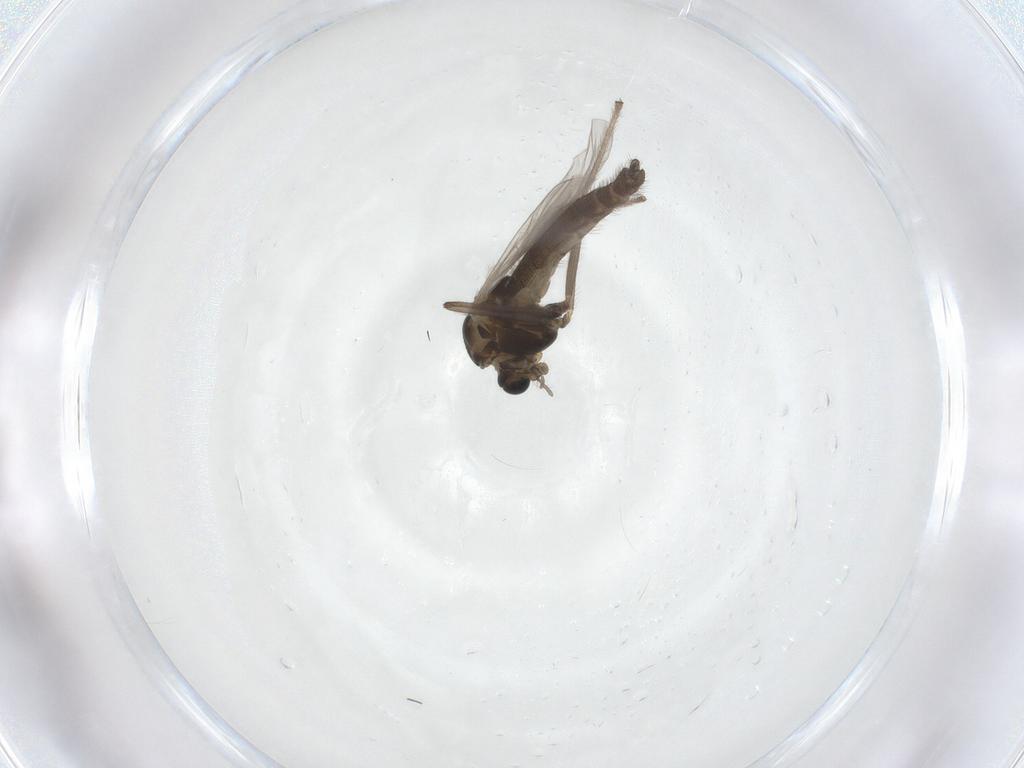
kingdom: Animalia
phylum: Arthropoda
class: Insecta
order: Diptera
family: Chironomidae
